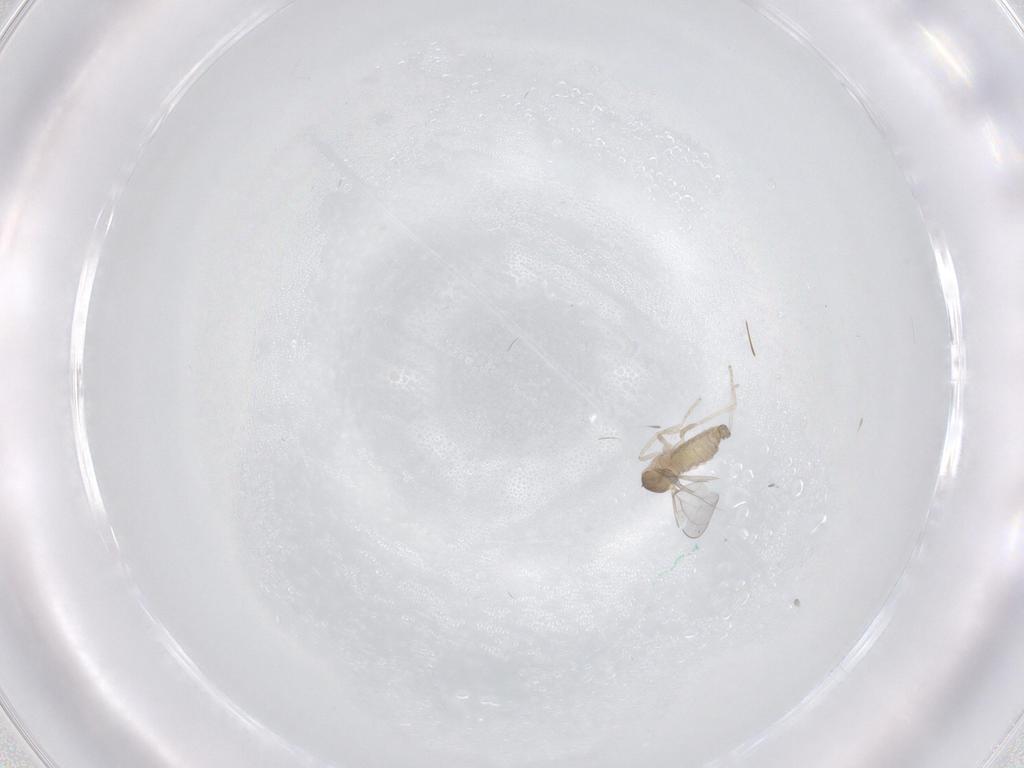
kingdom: Animalia
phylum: Arthropoda
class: Insecta
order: Diptera
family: Cecidomyiidae
